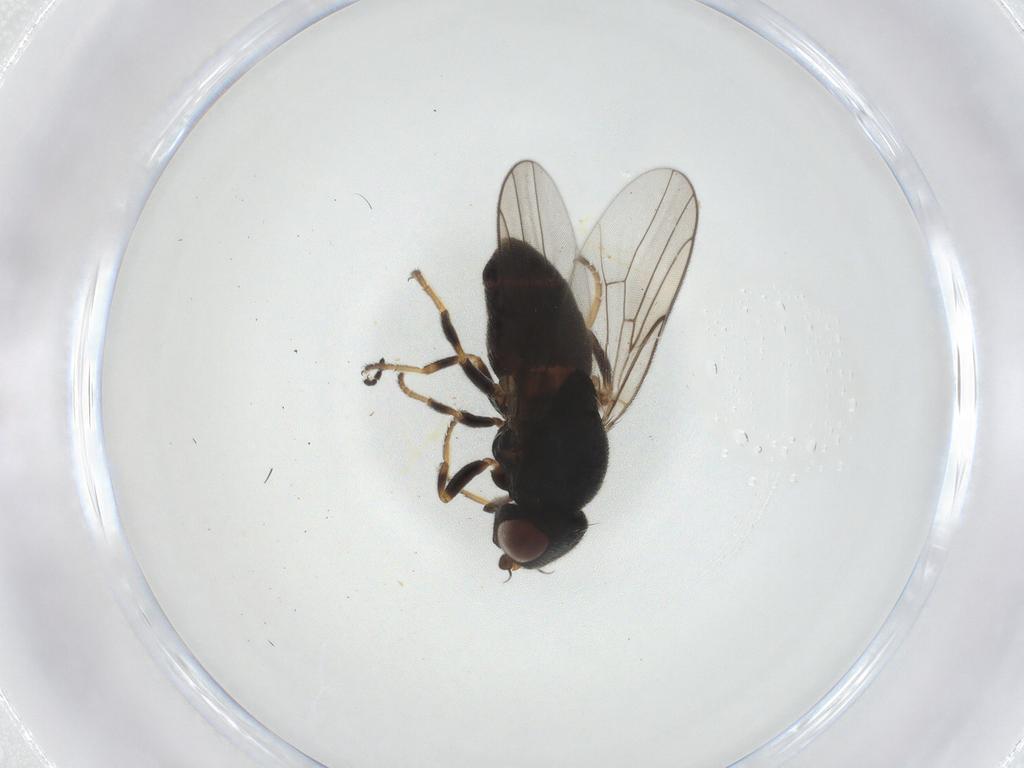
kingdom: Animalia
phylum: Arthropoda
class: Insecta
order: Diptera
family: Chloropidae
